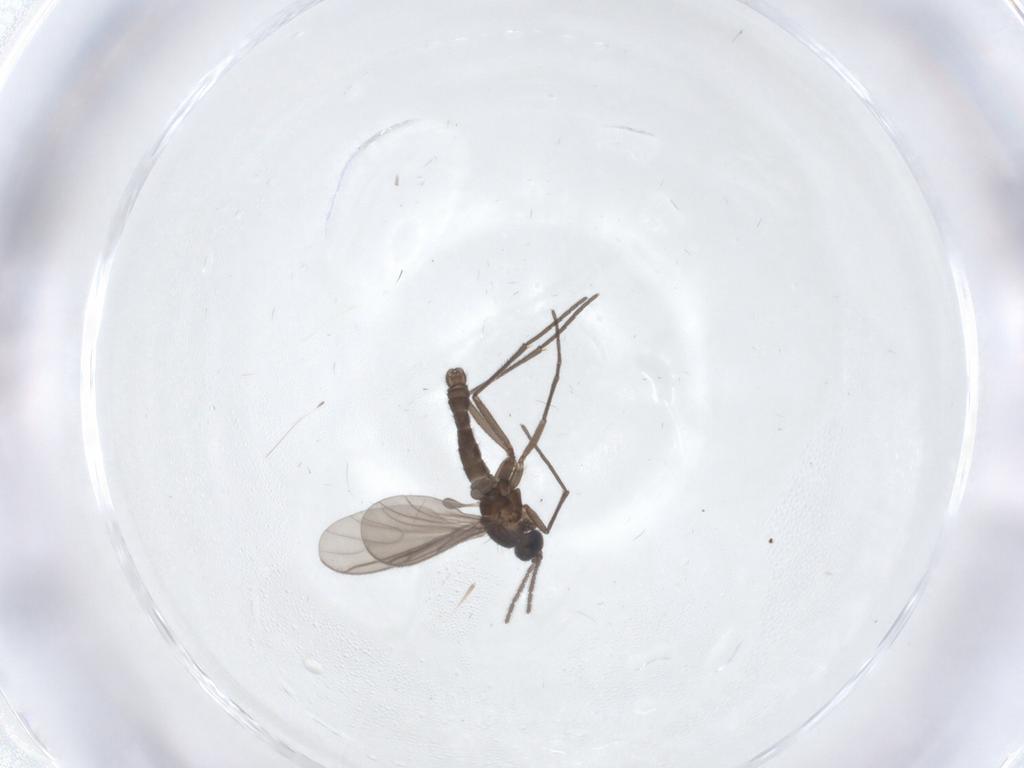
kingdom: Animalia
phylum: Arthropoda
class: Insecta
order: Diptera
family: Sciaridae
